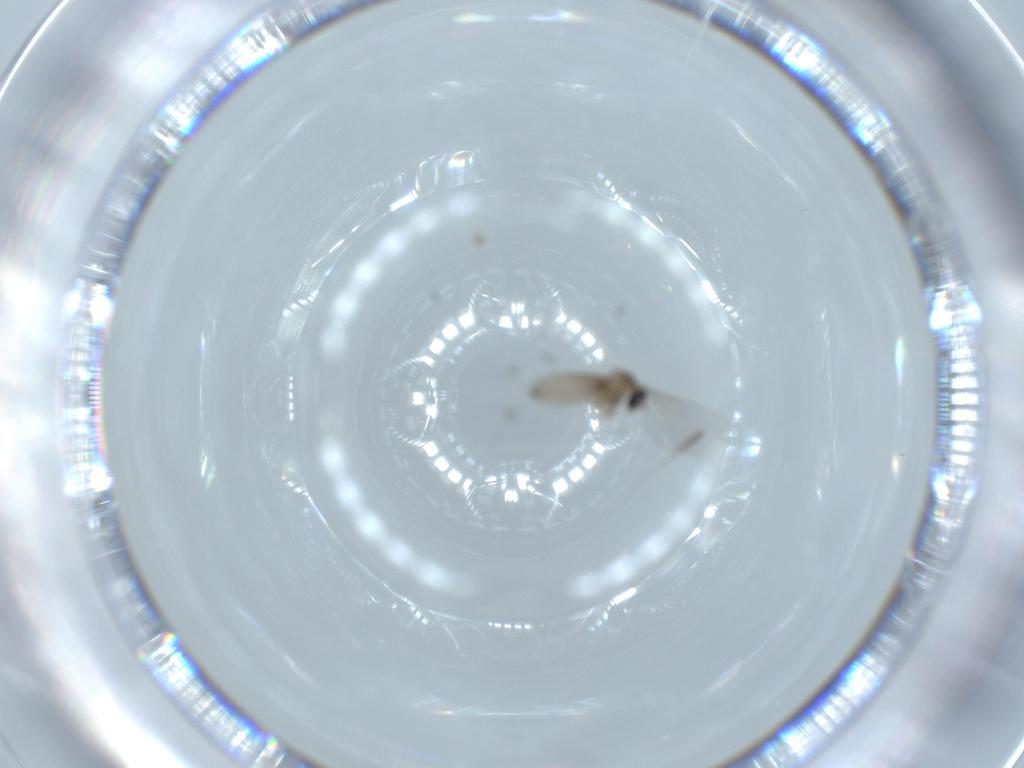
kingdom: Animalia
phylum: Arthropoda
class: Insecta
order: Diptera
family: Cecidomyiidae
